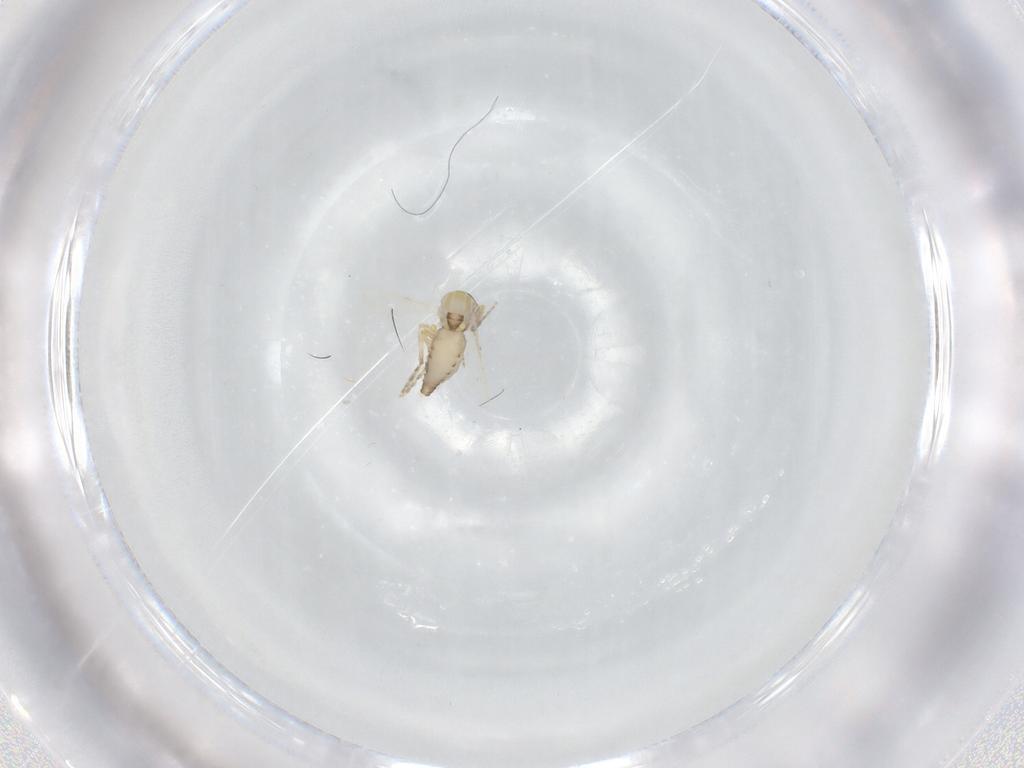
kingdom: Animalia
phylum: Arthropoda
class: Insecta
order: Diptera
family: Ceratopogonidae
